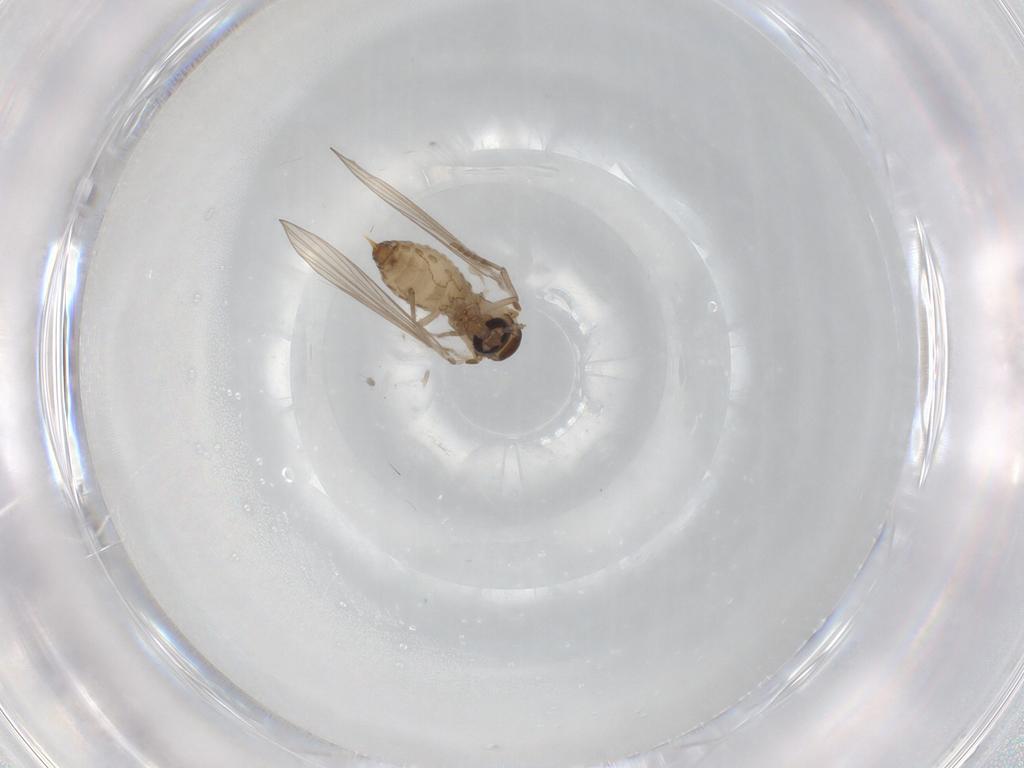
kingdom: Animalia
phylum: Arthropoda
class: Insecta
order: Diptera
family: Psychodidae
